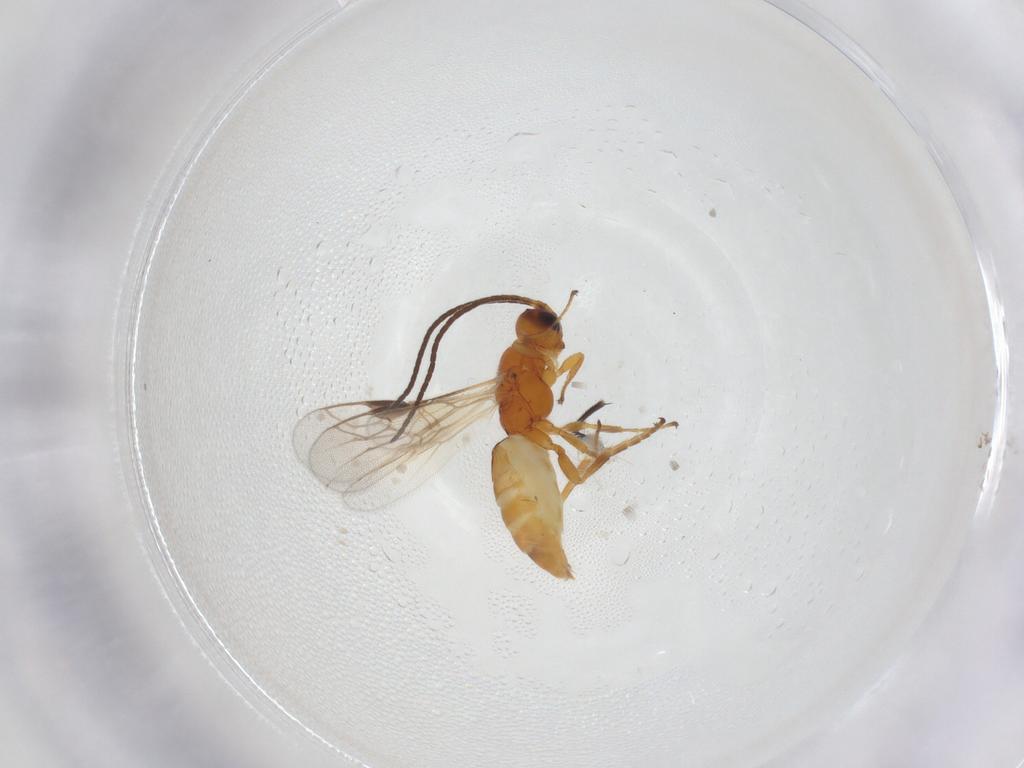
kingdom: Animalia
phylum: Arthropoda
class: Insecta
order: Hymenoptera
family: Braconidae
